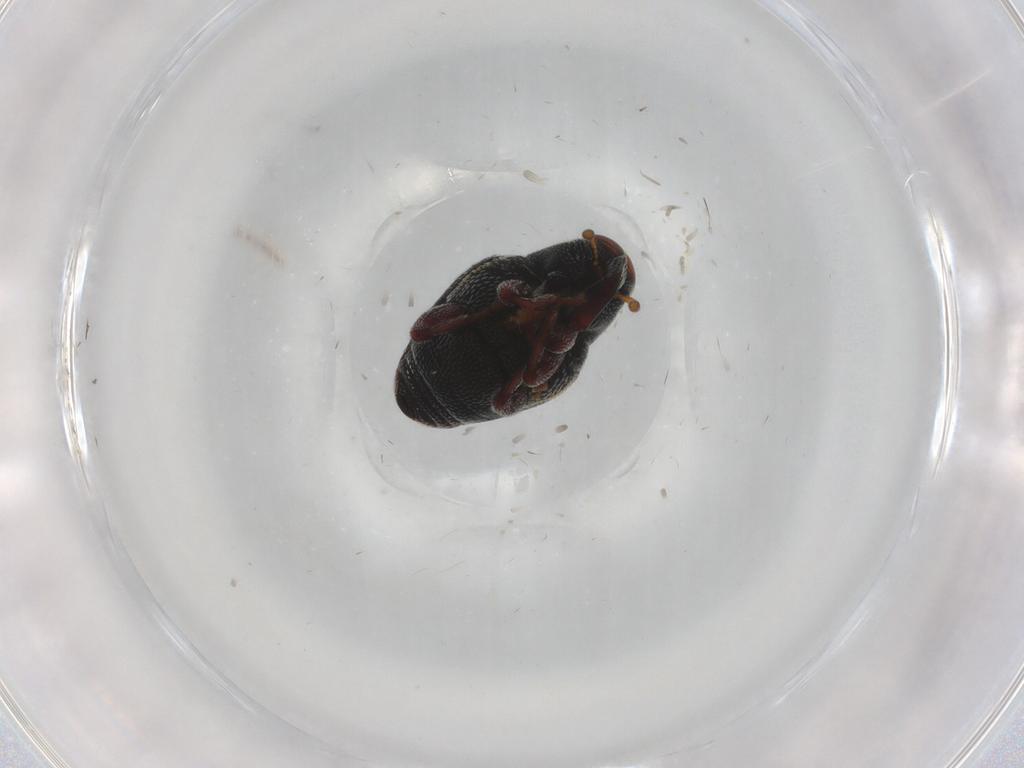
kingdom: Animalia
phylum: Arthropoda
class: Insecta
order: Coleoptera
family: Curculionidae
